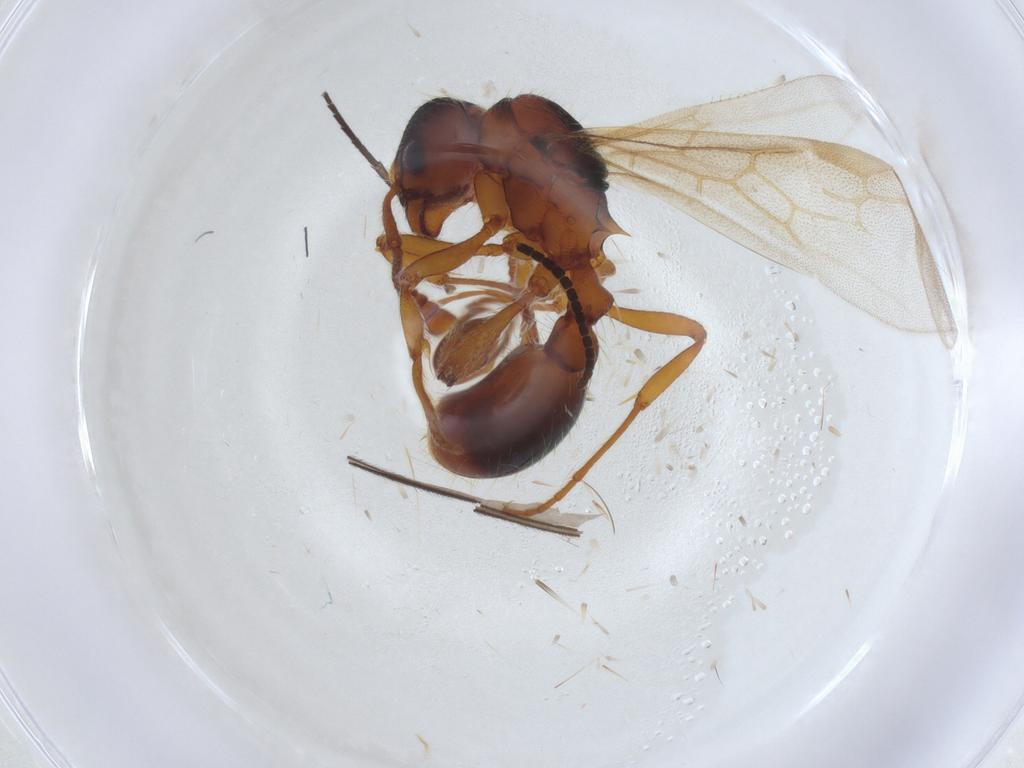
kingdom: Animalia
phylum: Arthropoda
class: Insecta
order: Hymenoptera
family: Formicidae
